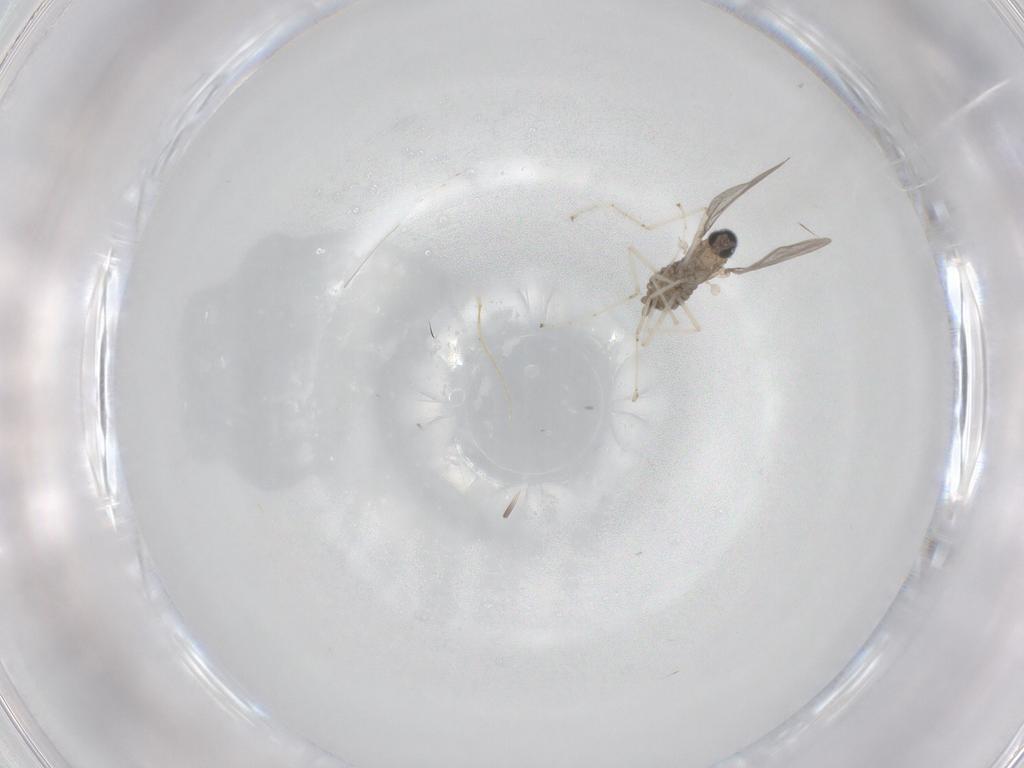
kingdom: Animalia
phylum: Arthropoda
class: Insecta
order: Diptera
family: Cecidomyiidae
